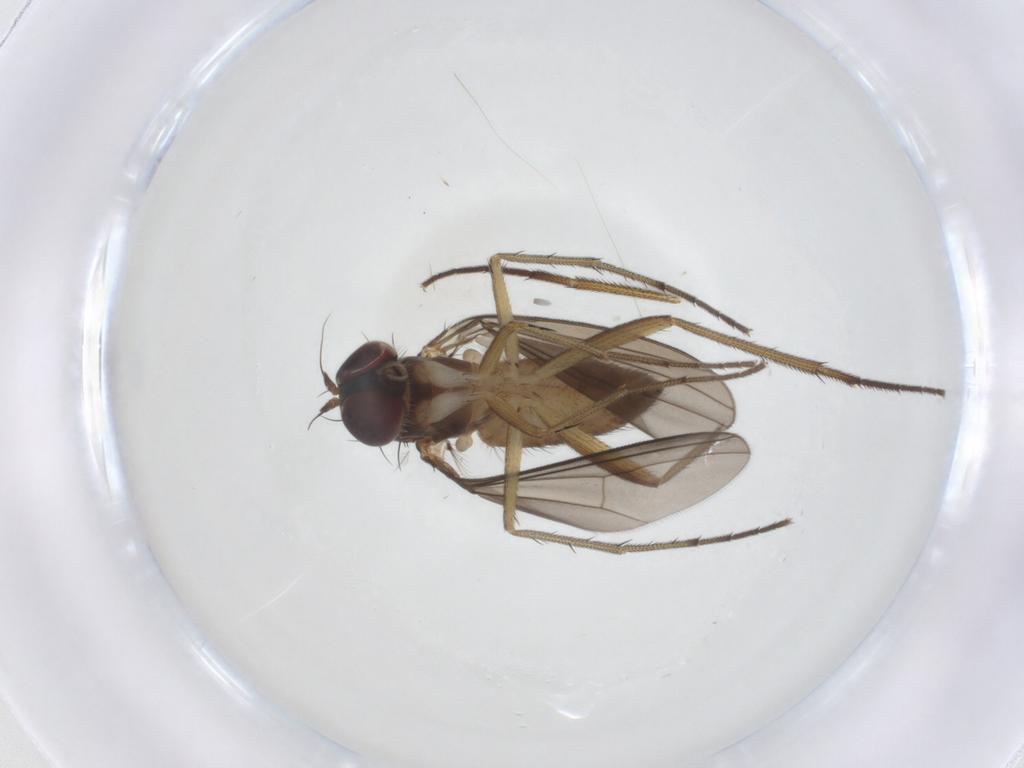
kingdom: Animalia
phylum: Arthropoda
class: Insecta
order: Diptera
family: Dolichopodidae
